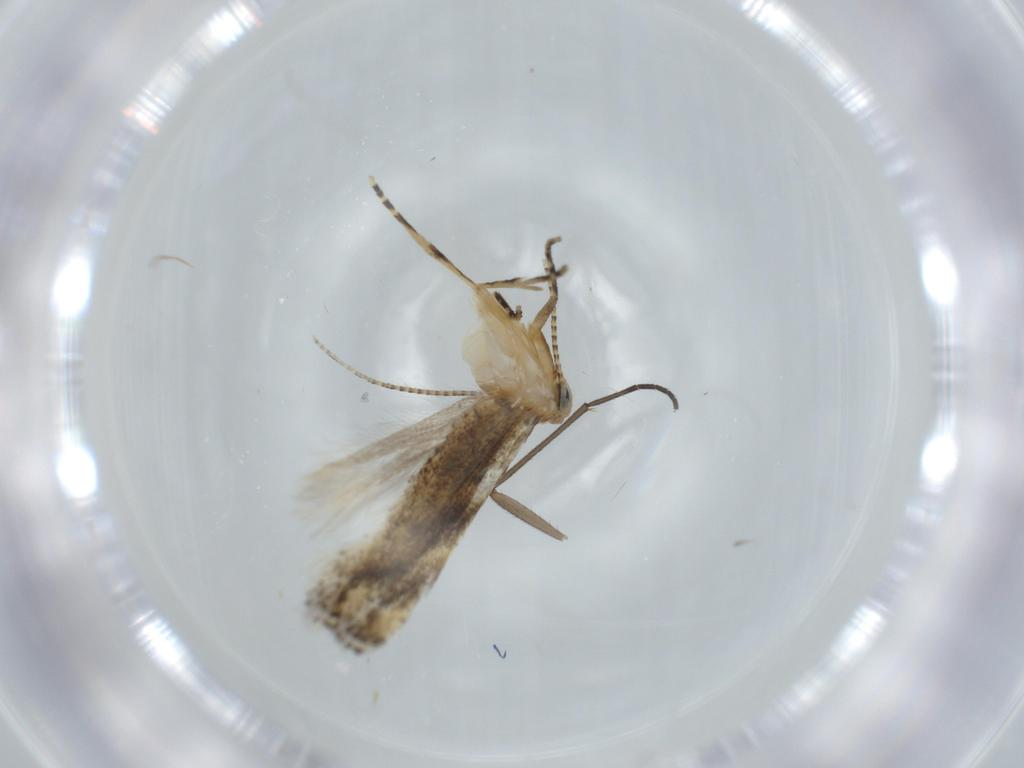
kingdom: Animalia
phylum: Arthropoda
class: Insecta
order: Lepidoptera
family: Bucculatricidae
